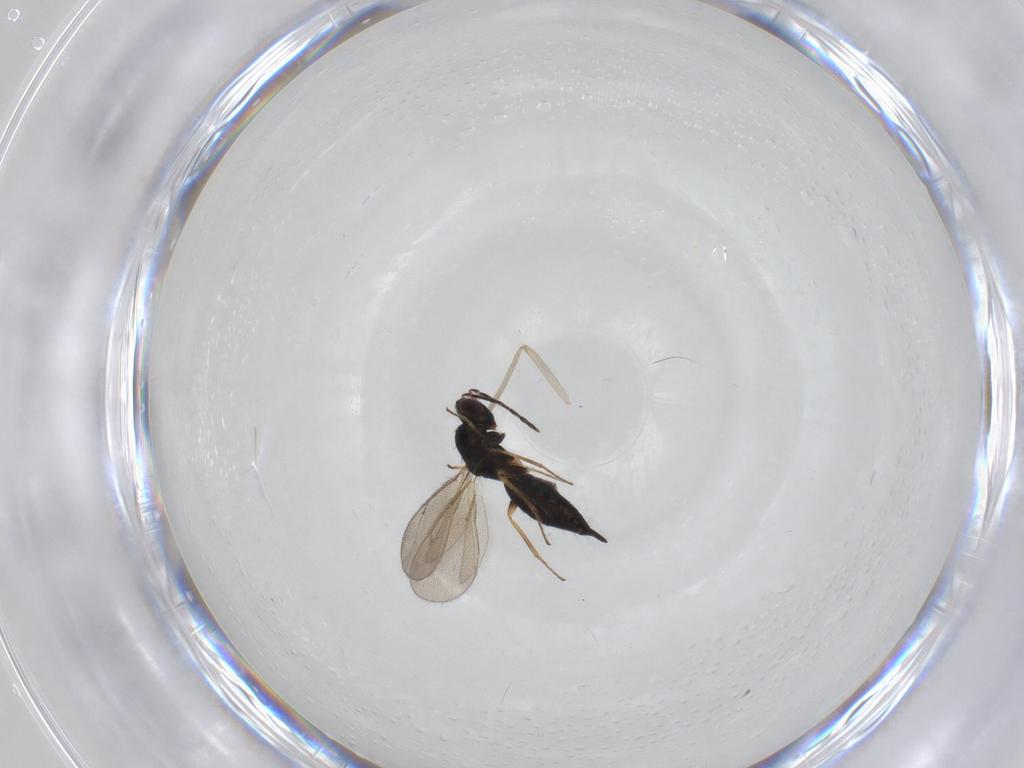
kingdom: Animalia
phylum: Arthropoda
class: Insecta
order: Hymenoptera
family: Eulophidae
